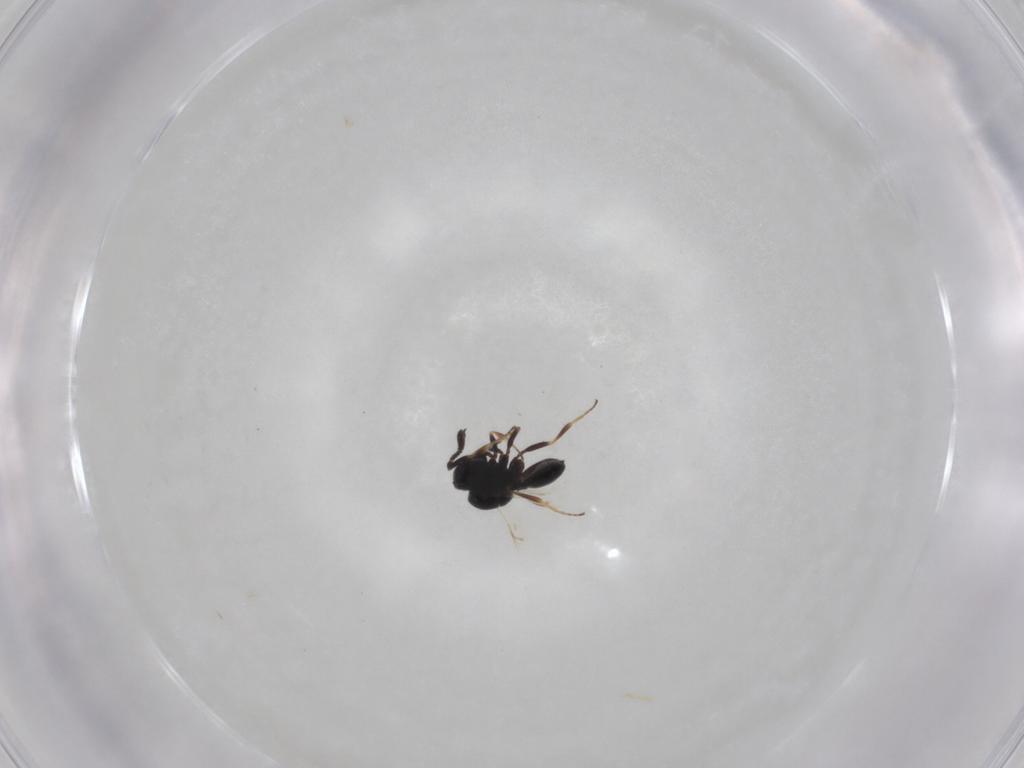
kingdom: Animalia
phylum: Arthropoda
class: Insecta
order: Hymenoptera
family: Scelionidae
